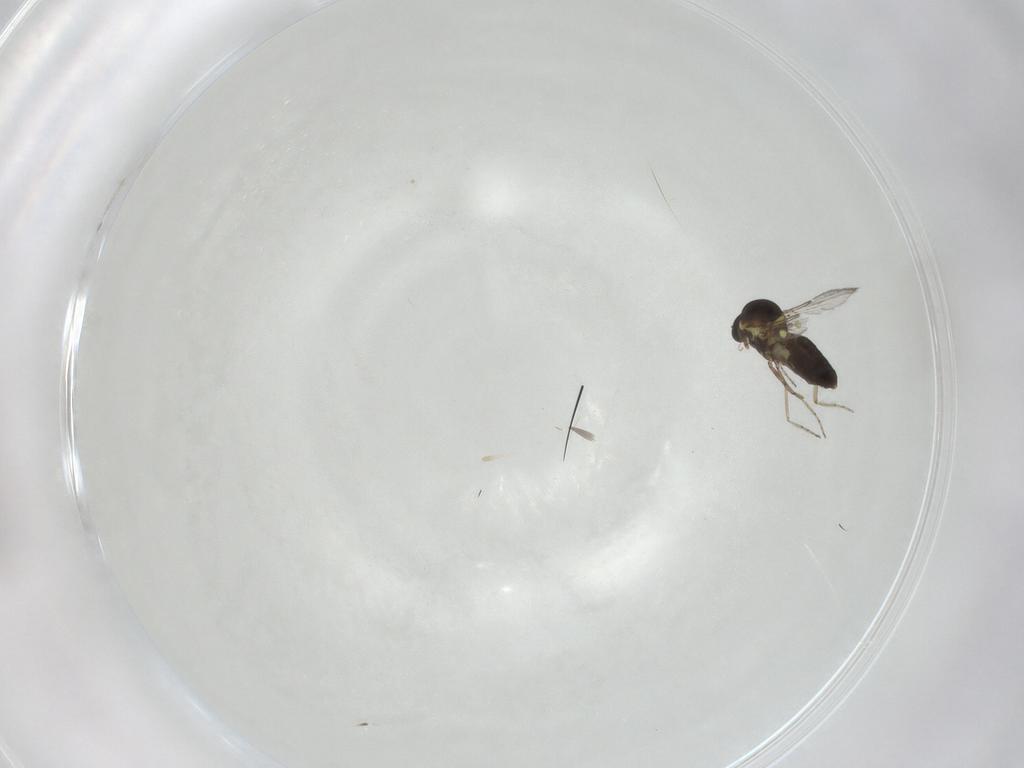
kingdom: Animalia
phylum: Arthropoda
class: Insecta
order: Diptera
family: Ceratopogonidae
